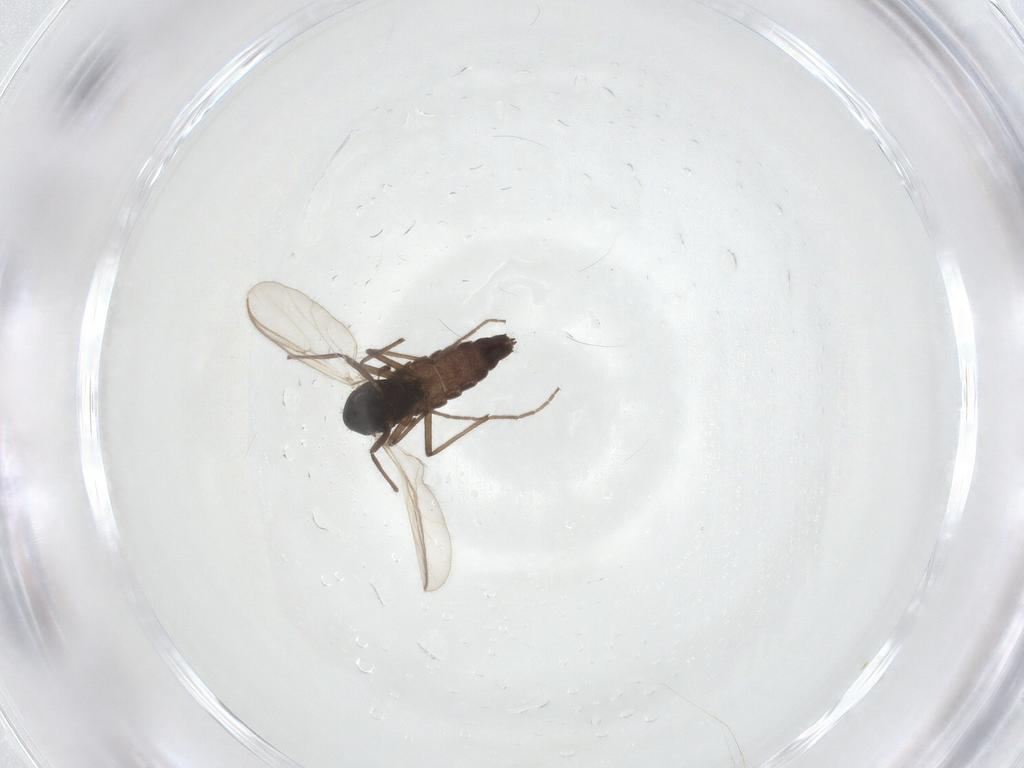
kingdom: Animalia
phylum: Arthropoda
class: Insecta
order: Diptera
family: Chironomidae
